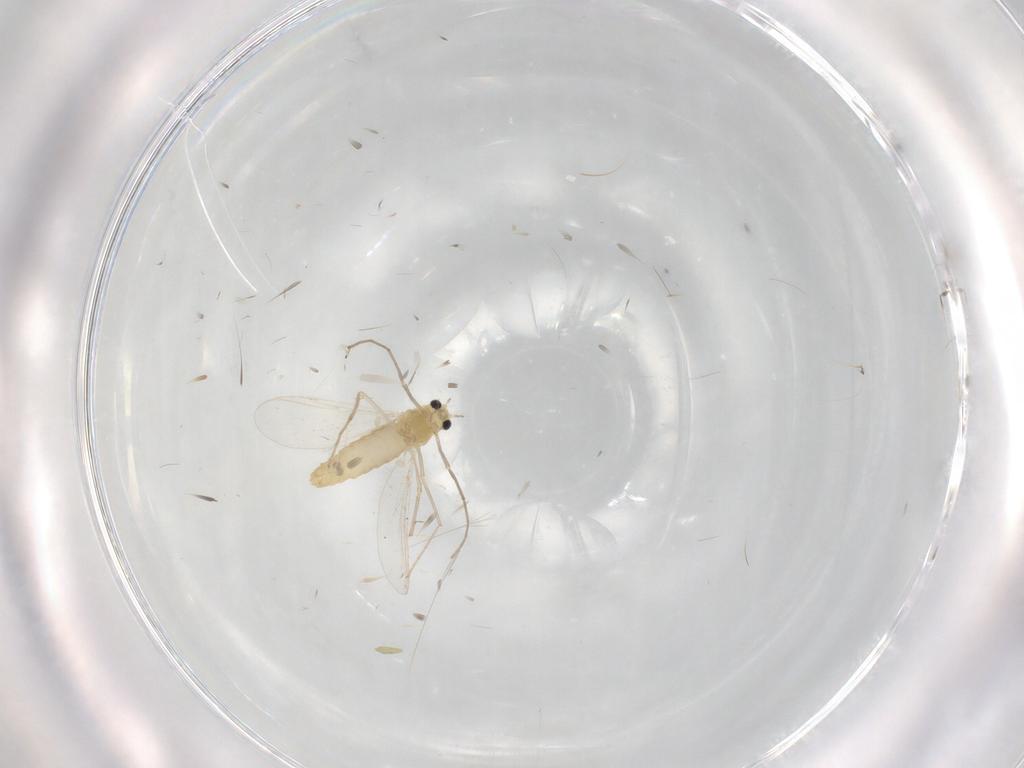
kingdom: Animalia
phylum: Arthropoda
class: Insecta
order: Diptera
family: Chironomidae
